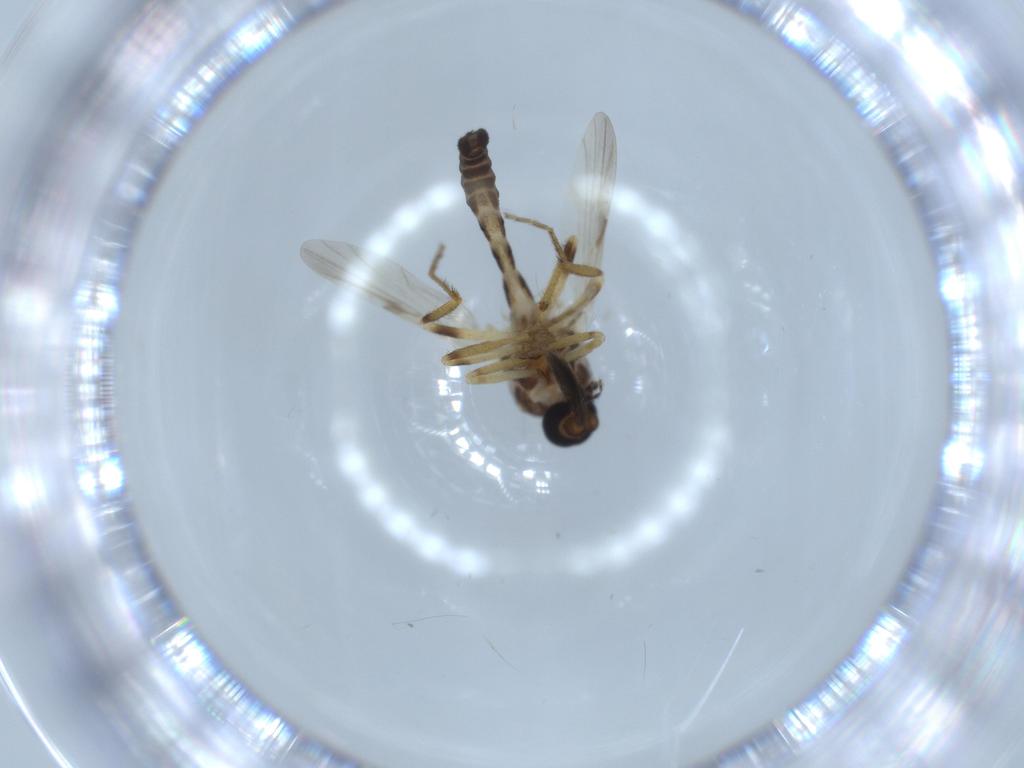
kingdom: Animalia
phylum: Arthropoda
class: Insecta
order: Diptera
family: Ceratopogonidae
